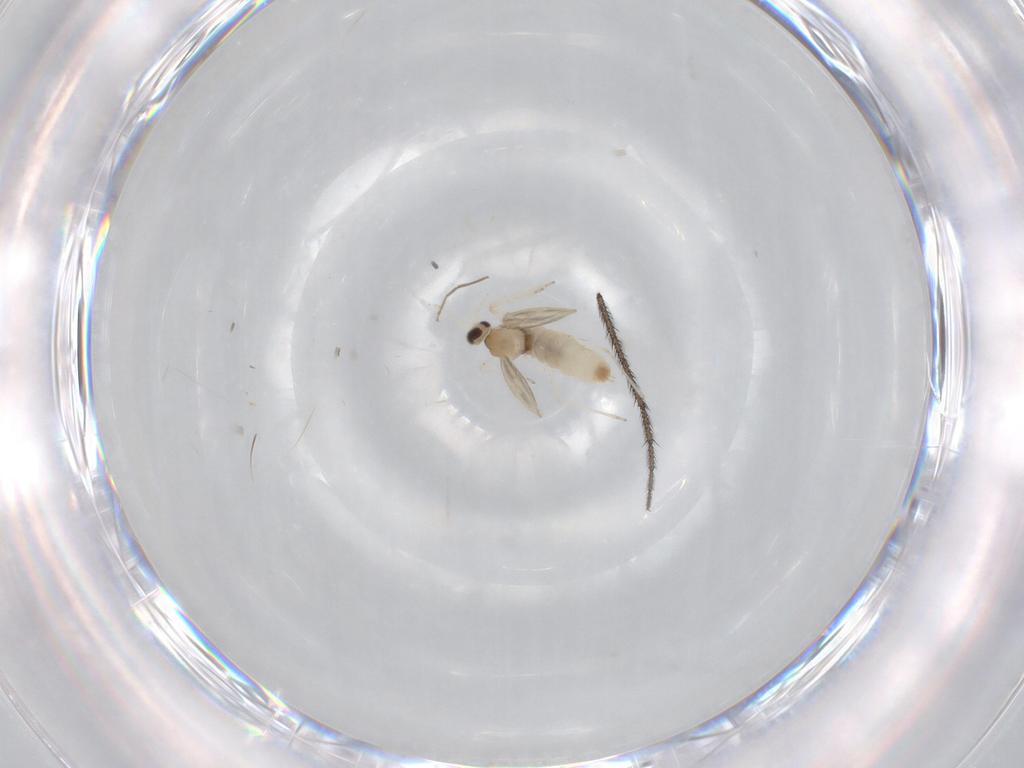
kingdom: Animalia
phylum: Arthropoda
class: Insecta
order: Diptera
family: Cecidomyiidae
